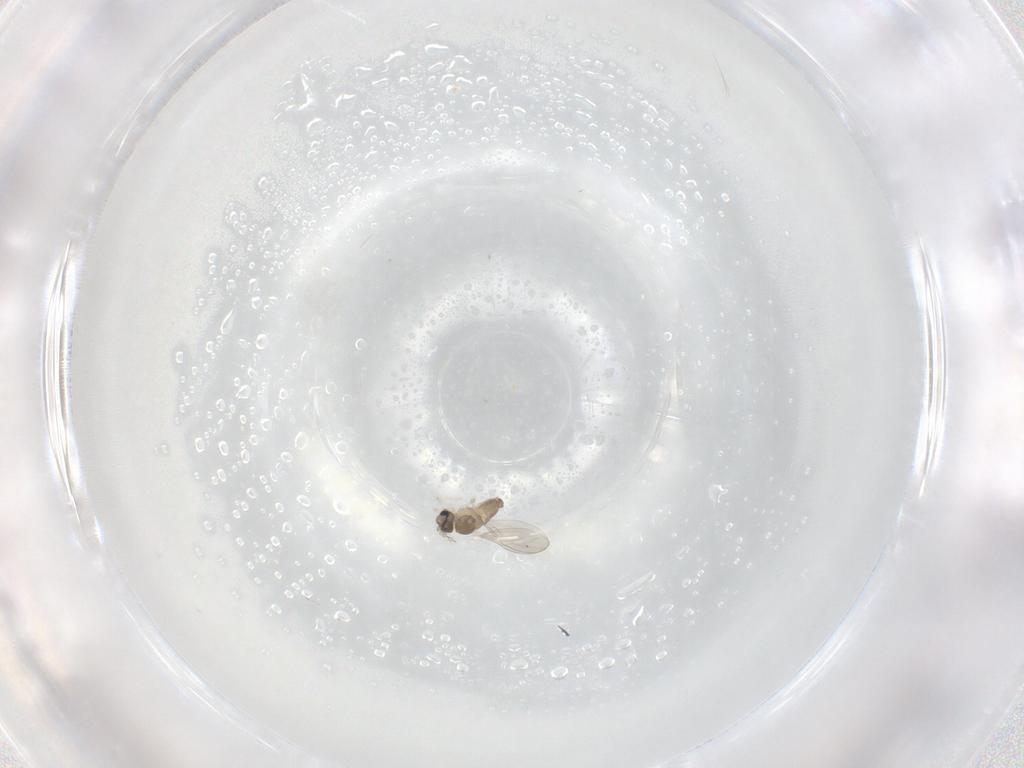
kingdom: Animalia
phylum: Arthropoda
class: Insecta
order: Diptera
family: Cecidomyiidae
